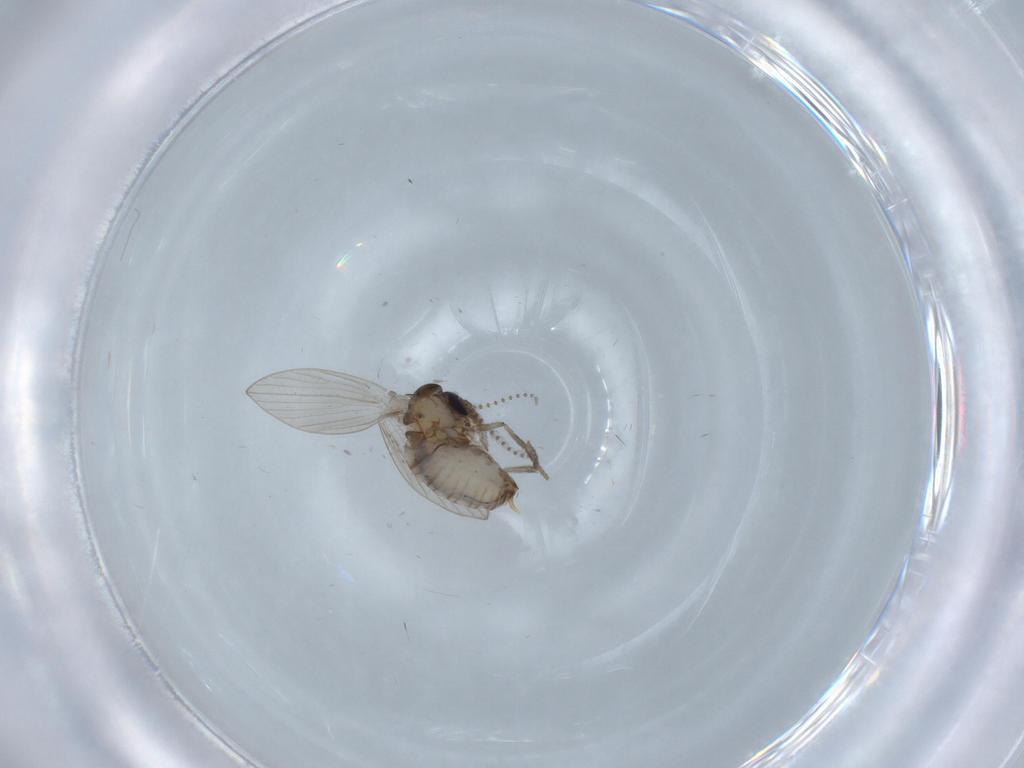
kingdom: Animalia
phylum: Arthropoda
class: Insecta
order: Diptera
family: Psychodidae
